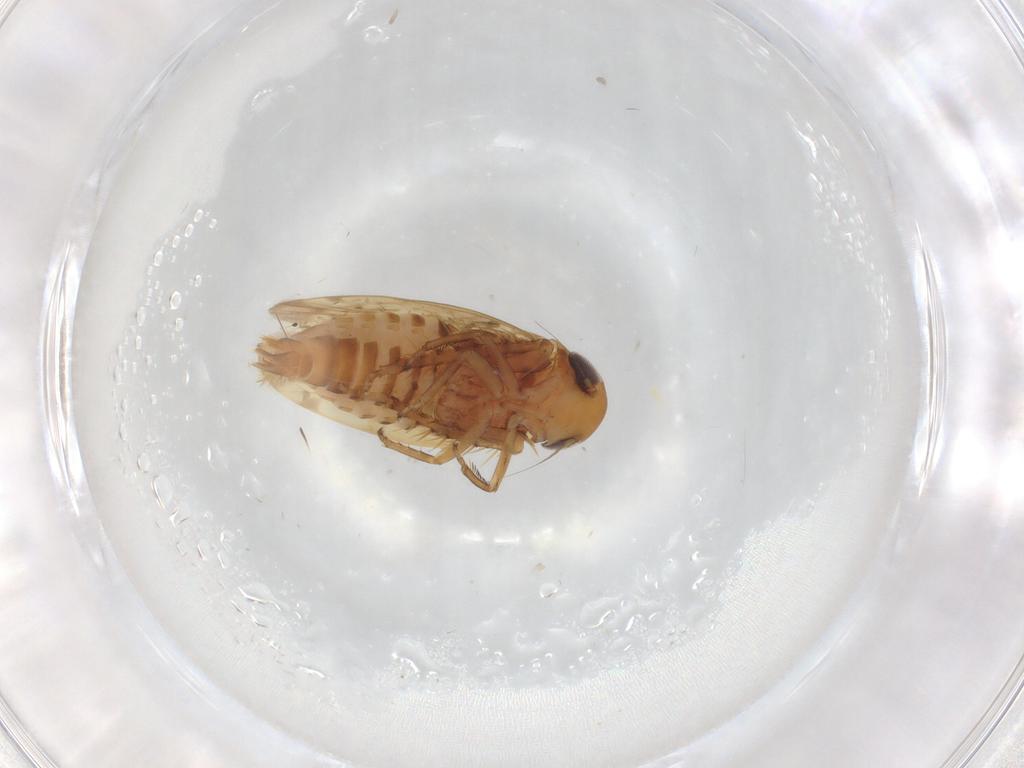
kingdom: Animalia
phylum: Arthropoda
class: Insecta
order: Hemiptera
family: Cicadellidae
